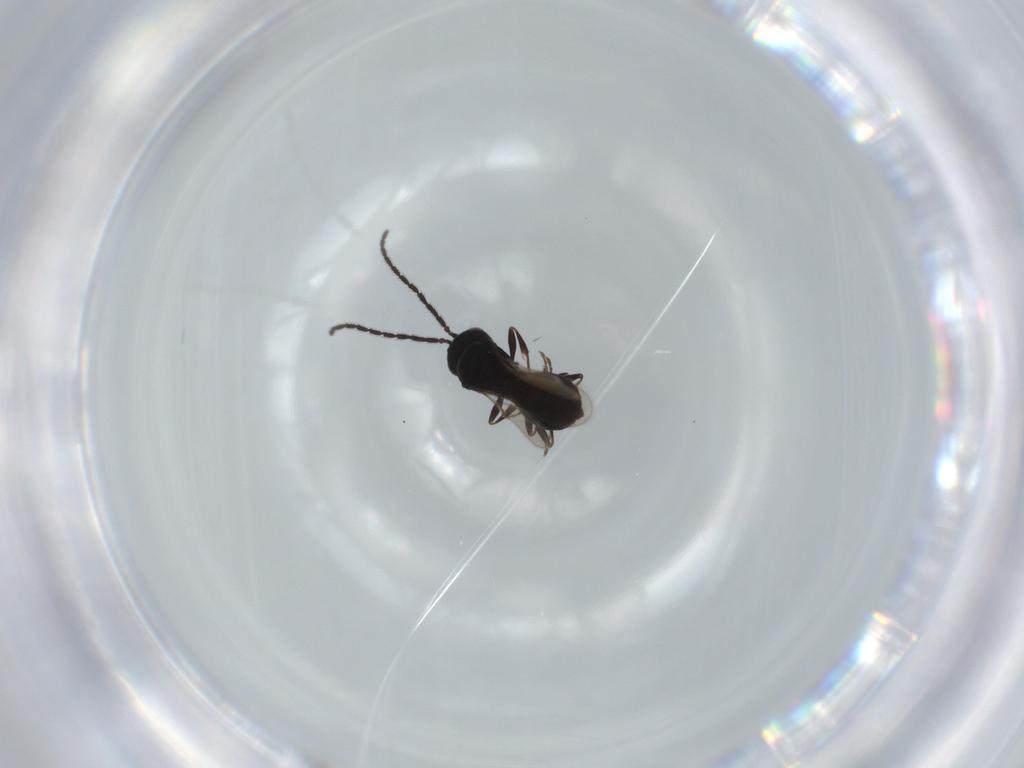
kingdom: Animalia
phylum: Arthropoda
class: Insecta
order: Hymenoptera
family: Scelionidae
